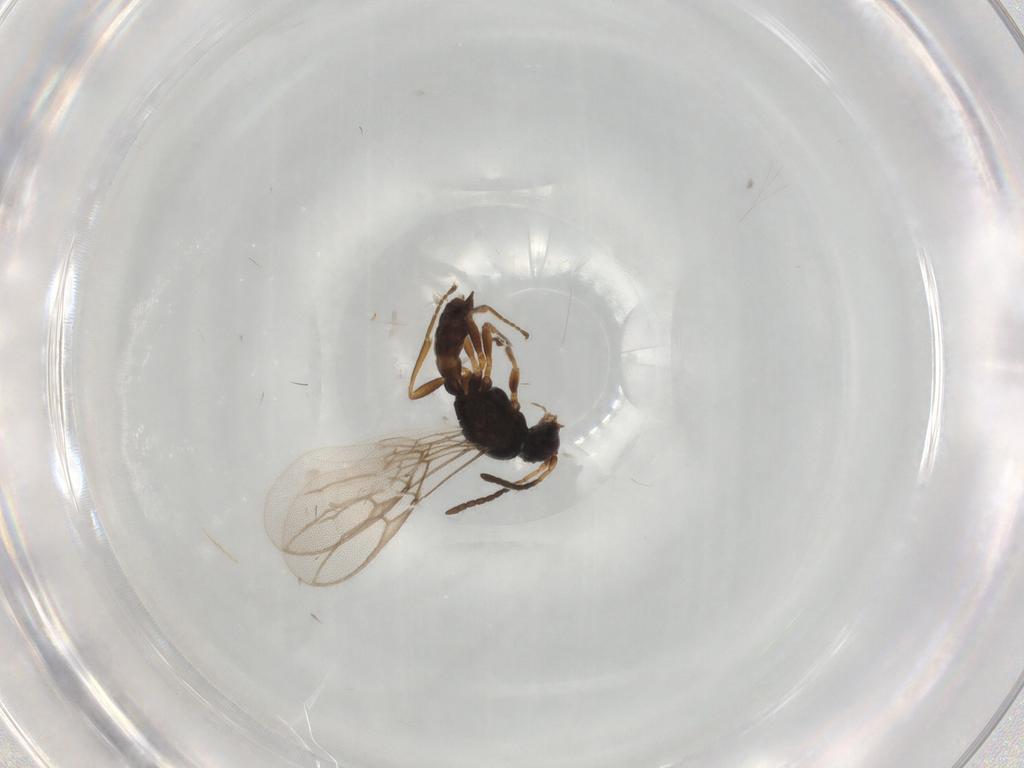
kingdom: Animalia
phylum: Arthropoda
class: Insecta
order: Hymenoptera
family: Braconidae
